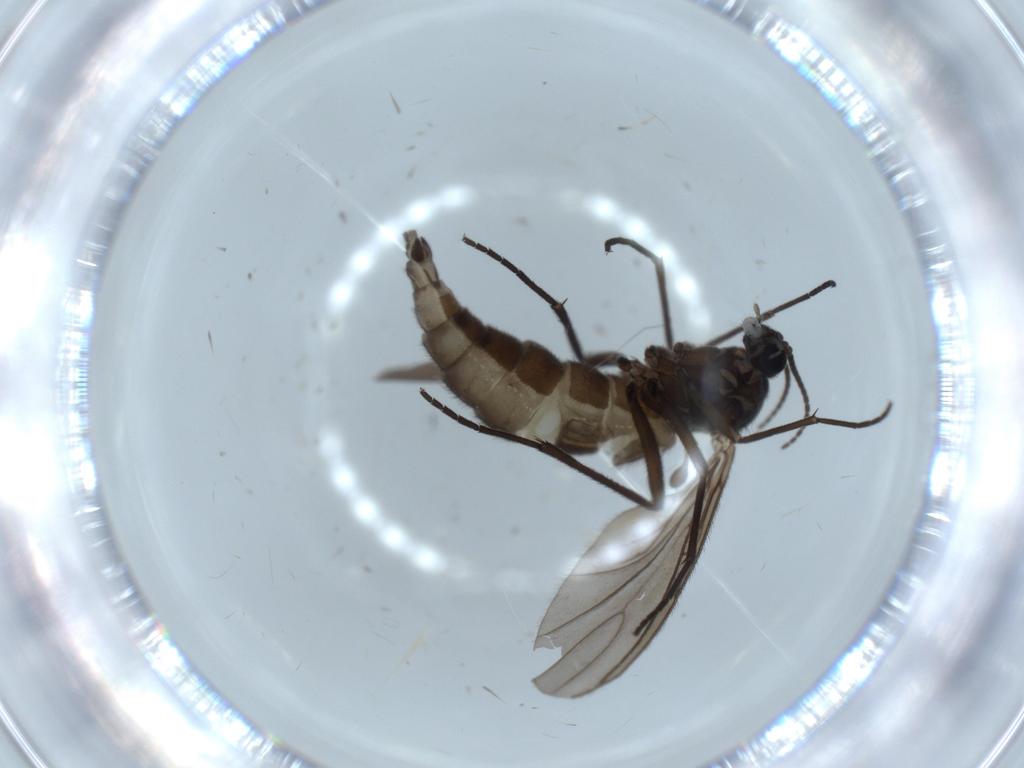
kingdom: Animalia
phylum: Arthropoda
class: Insecta
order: Diptera
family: Sciaridae
